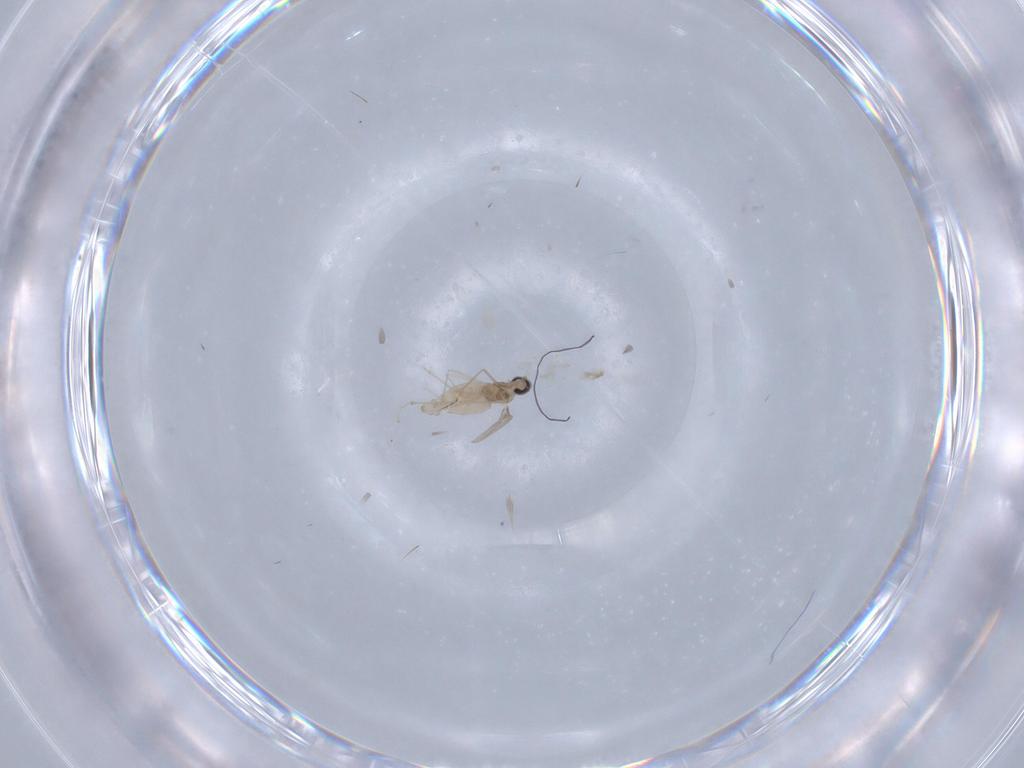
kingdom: Animalia
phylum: Arthropoda
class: Insecta
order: Diptera
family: Cecidomyiidae
